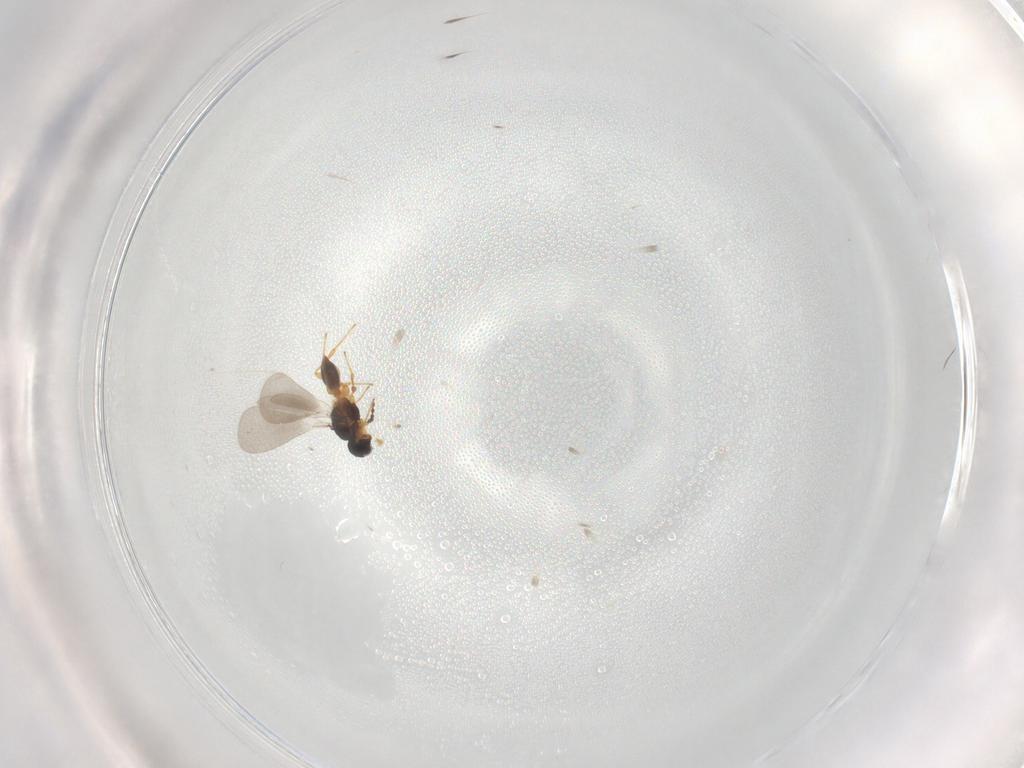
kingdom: Animalia
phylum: Arthropoda
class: Insecta
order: Hymenoptera
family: Platygastridae
